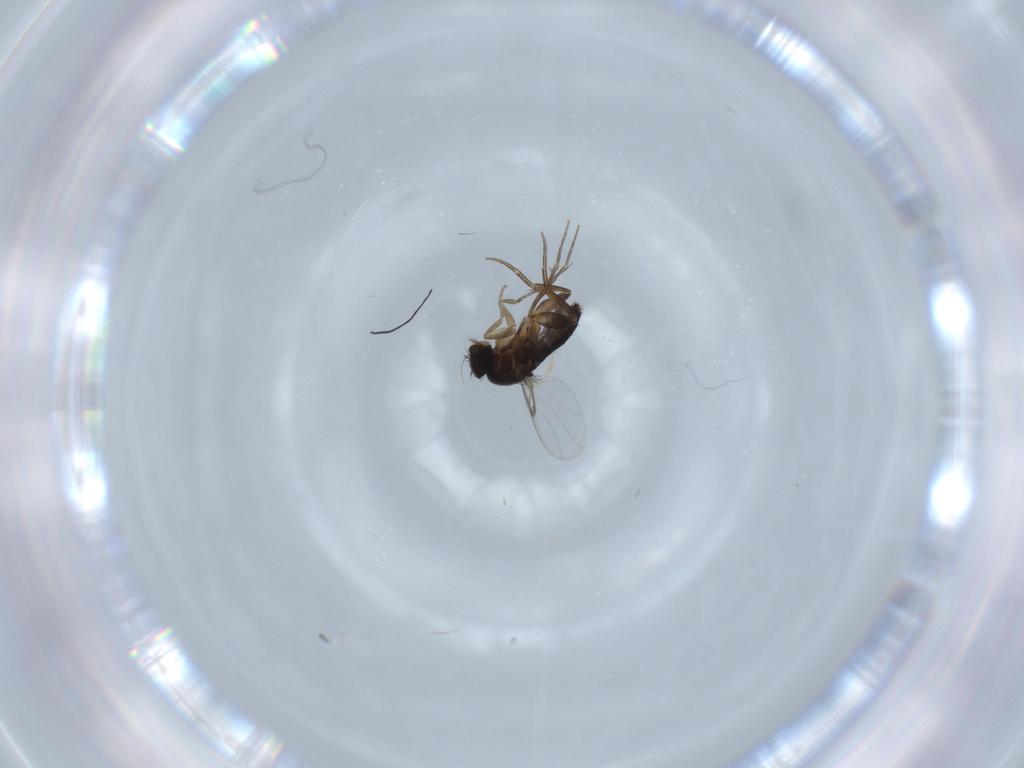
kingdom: Animalia
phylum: Arthropoda
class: Insecta
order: Diptera
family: Phoridae
